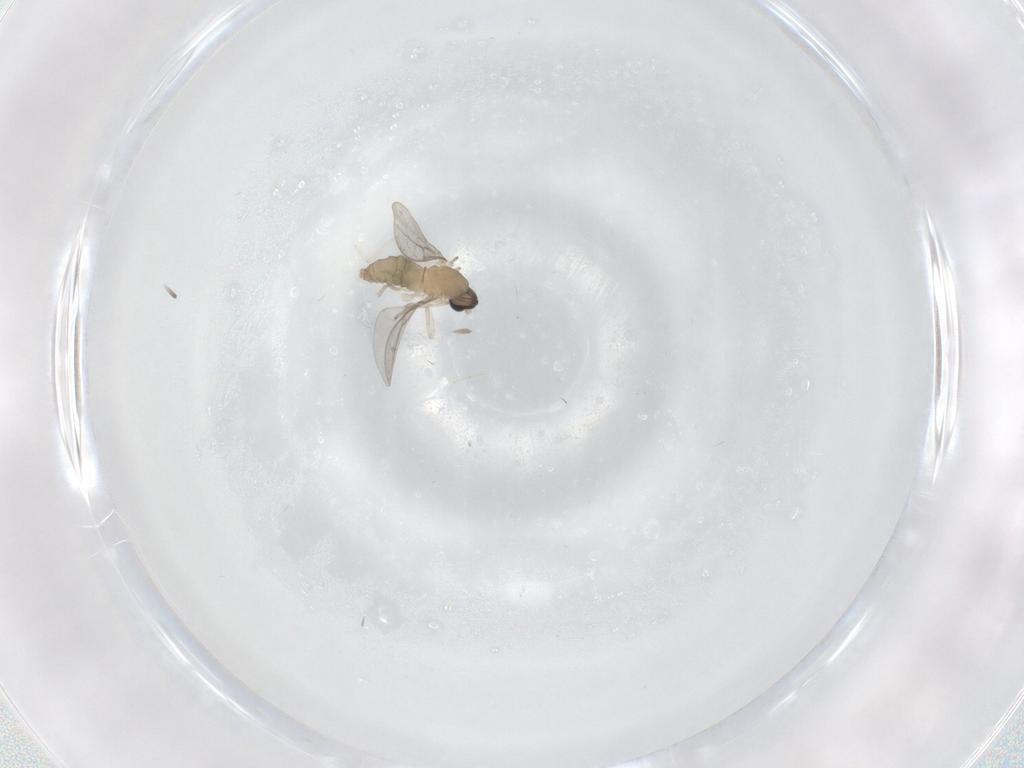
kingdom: Animalia
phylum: Arthropoda
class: Insecta
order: Diptera
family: Cecidomyiidae
